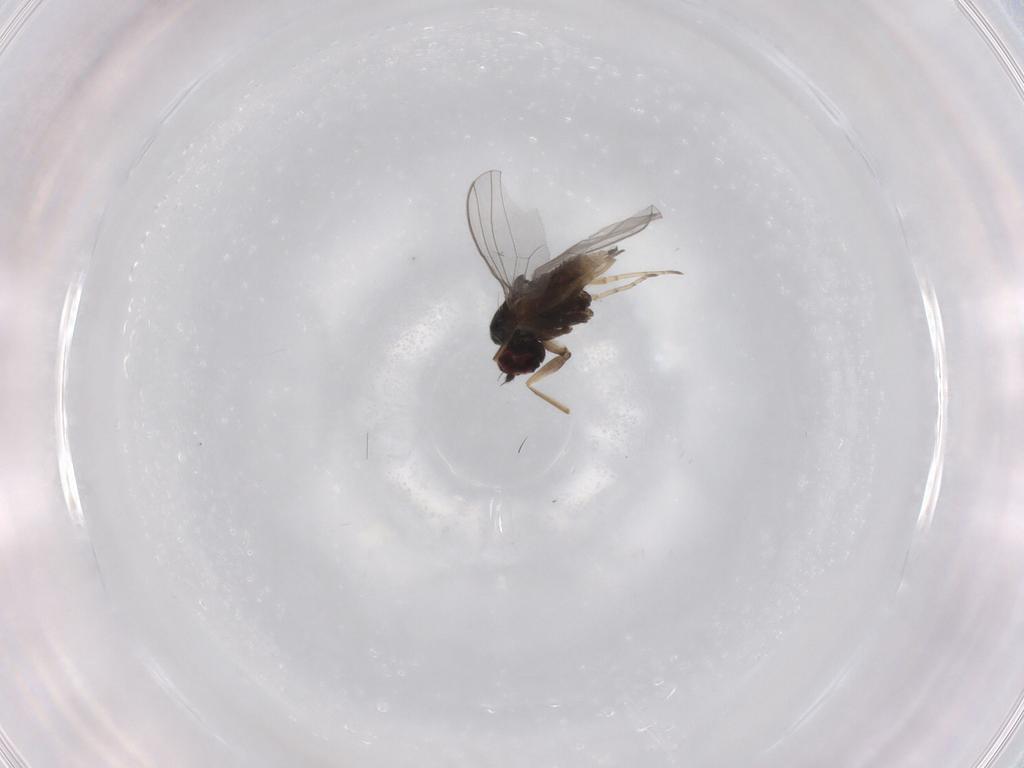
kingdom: Animalia
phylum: Arthropoda
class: Insecta
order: Diptera
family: Dolichopodidae
